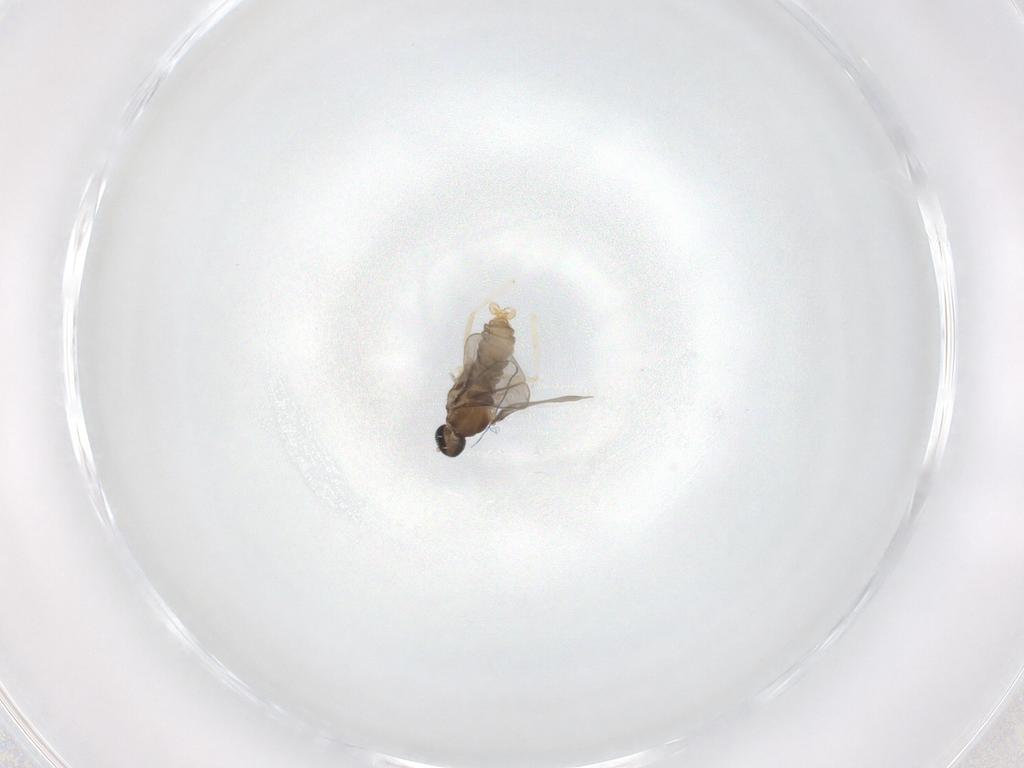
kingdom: Animalia
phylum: Arthropoda
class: Insecta
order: Diptera
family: Cecidomyiidae
